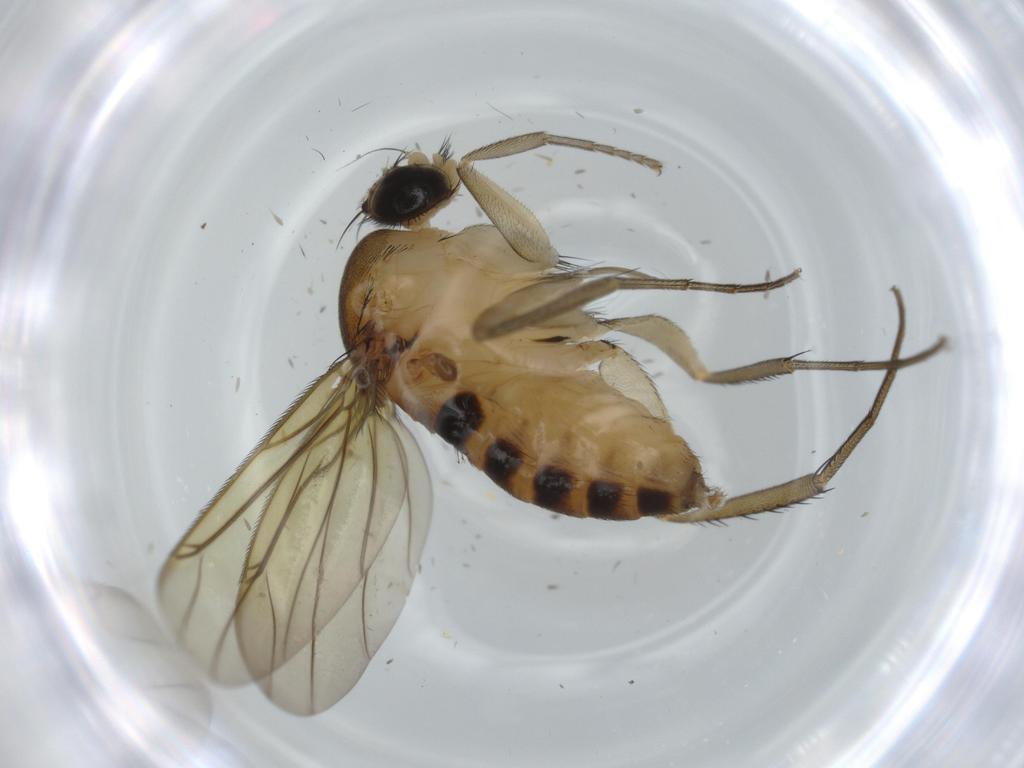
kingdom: Animalia
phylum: Arthropoda
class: Insecta
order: Diptera
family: Phoridae
